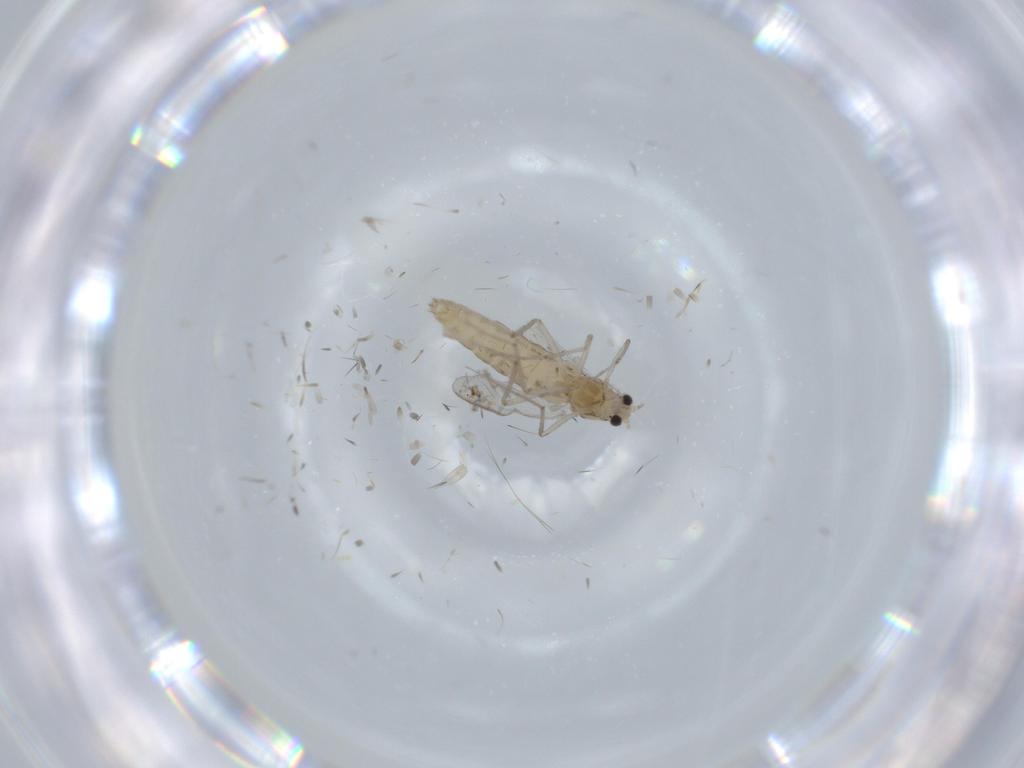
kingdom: Animalia
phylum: Arthropoda
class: Insecta
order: Diptera
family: Chironomidae
